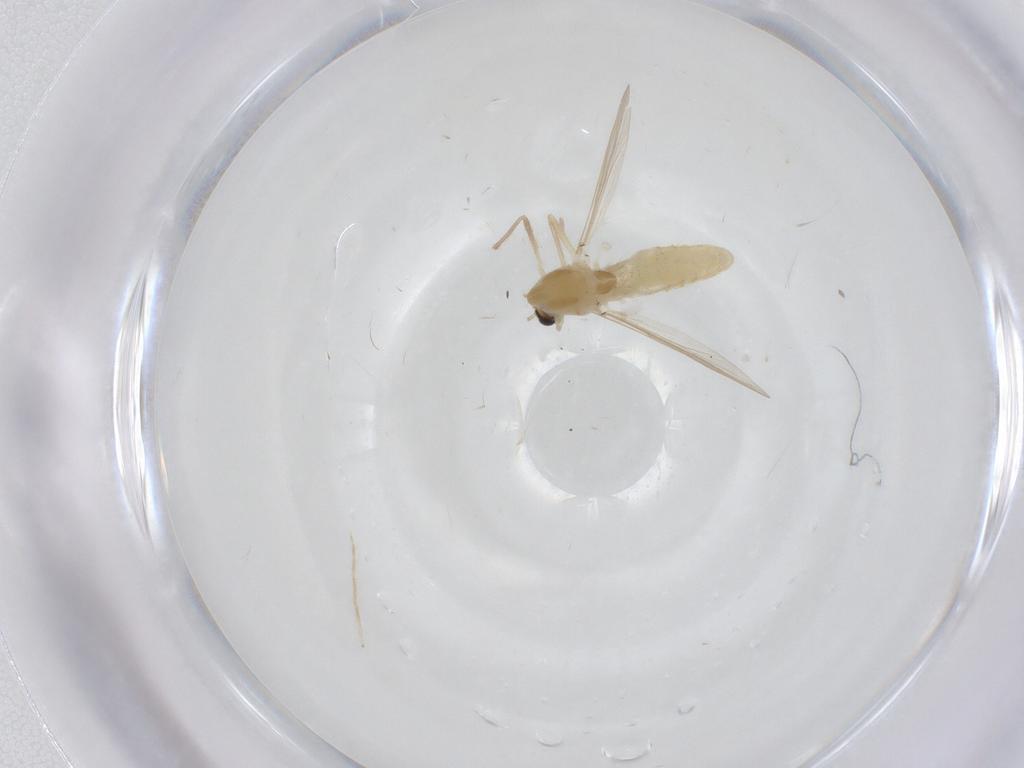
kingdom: Animalia
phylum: Arthropoda
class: Insecta
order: Diptera
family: Chironomidae
